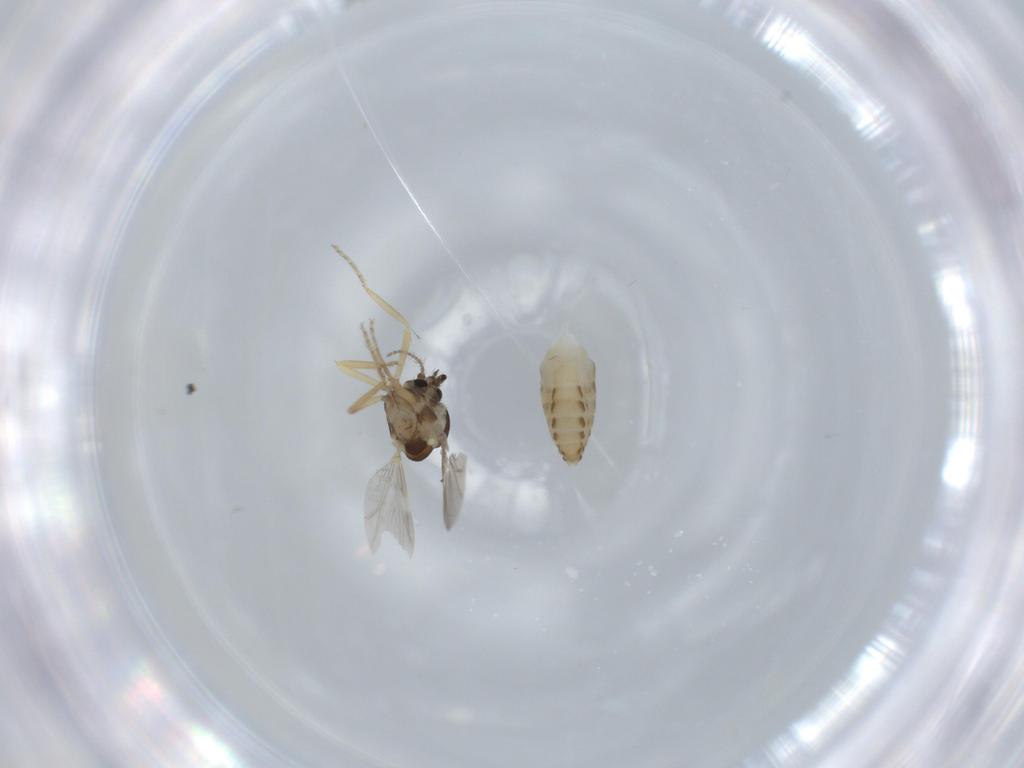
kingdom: Animalia
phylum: Arthropoda
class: Insecta
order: Diptera
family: Ceratopogonidae
